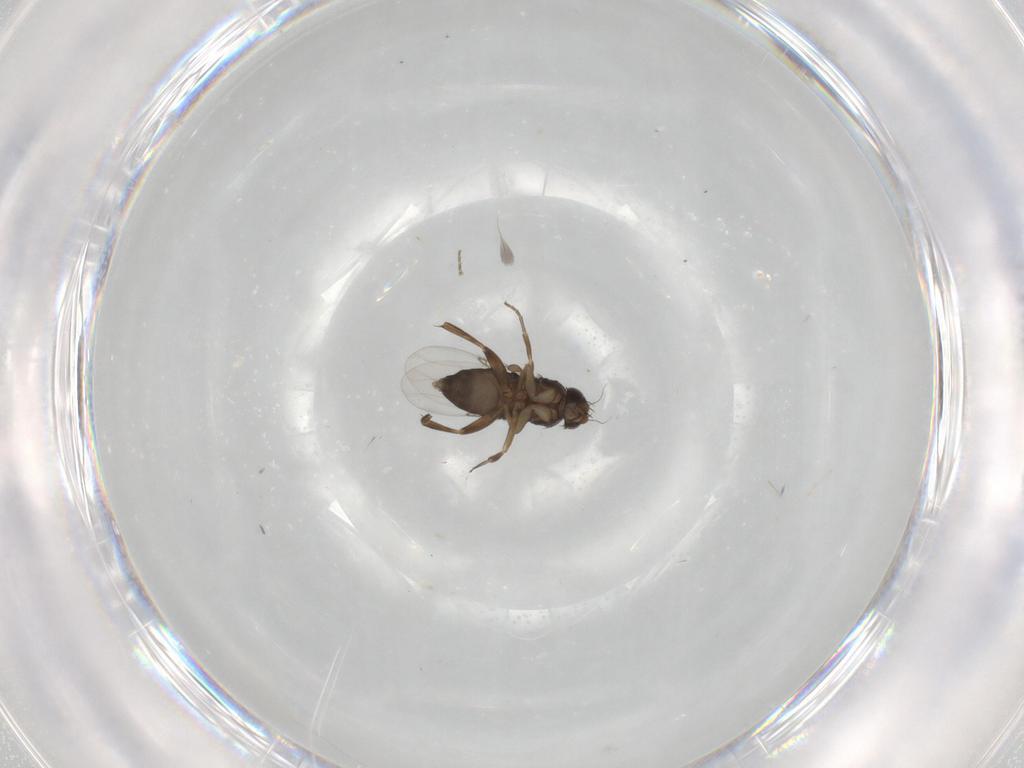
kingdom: Animalia
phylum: Arthropoda
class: Insecta
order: Diptera
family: Phoridae
